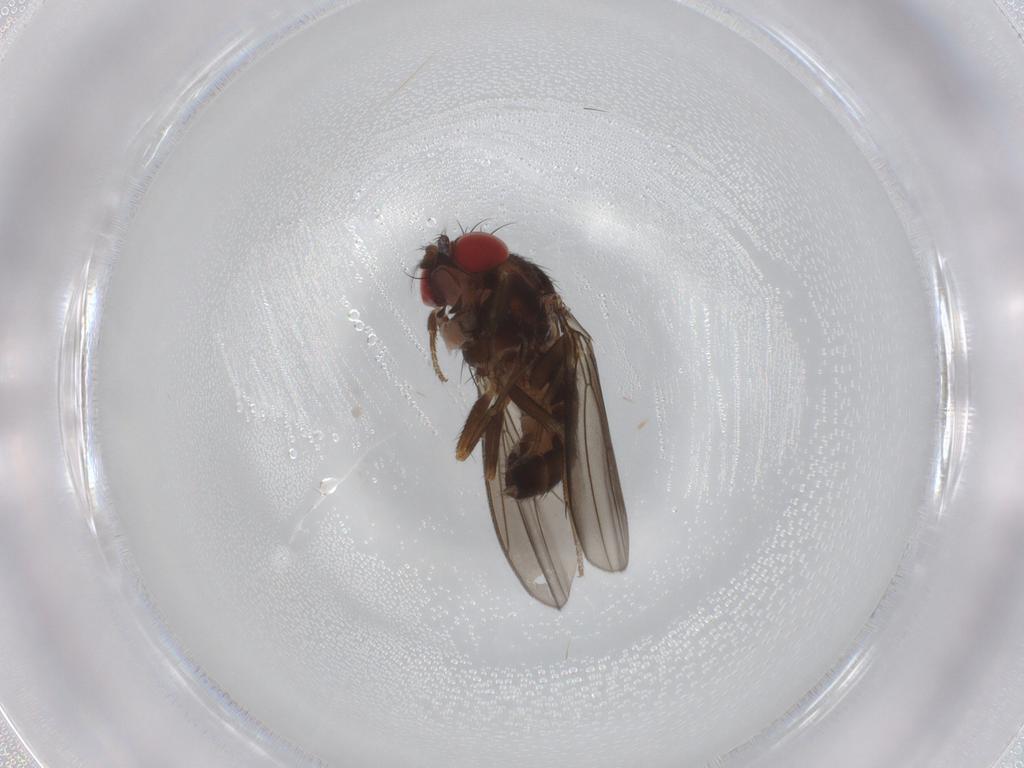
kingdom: Animalia
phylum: Arthropoda
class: Insecta
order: Diptera
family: Drosophilidae
